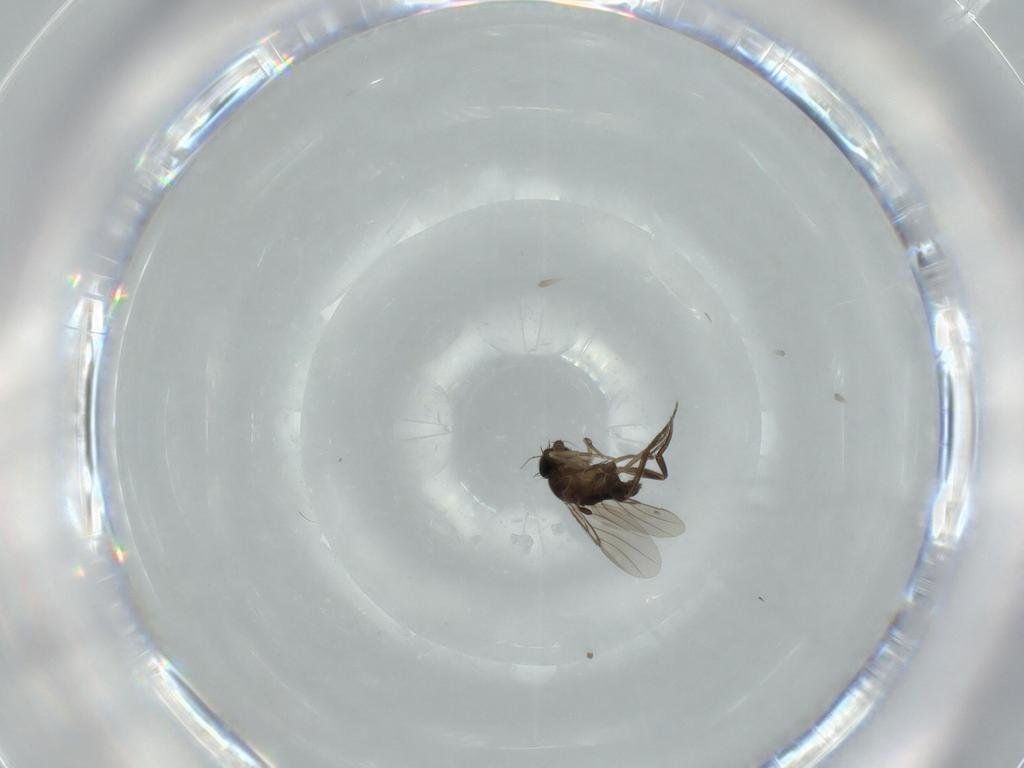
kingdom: Animalia
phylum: Arthropoda
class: Insecta
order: Diptera
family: Phoridae
